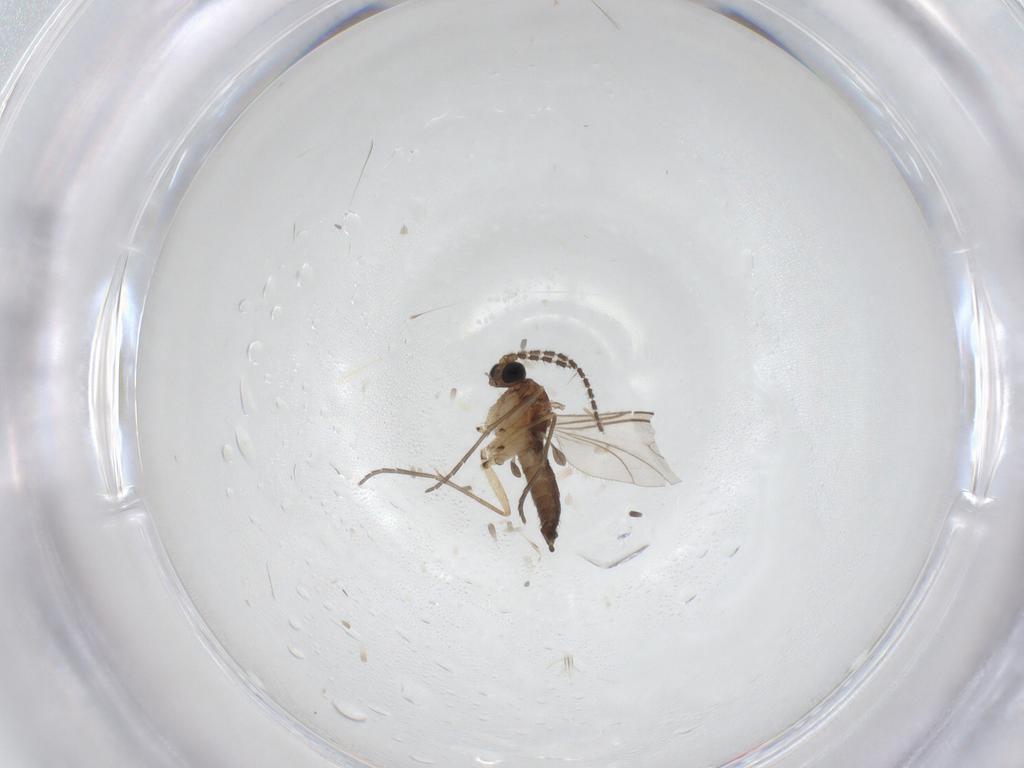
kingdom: Animalia
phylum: Arthropoda
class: Insecta
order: Diptera
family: Sciaridae
